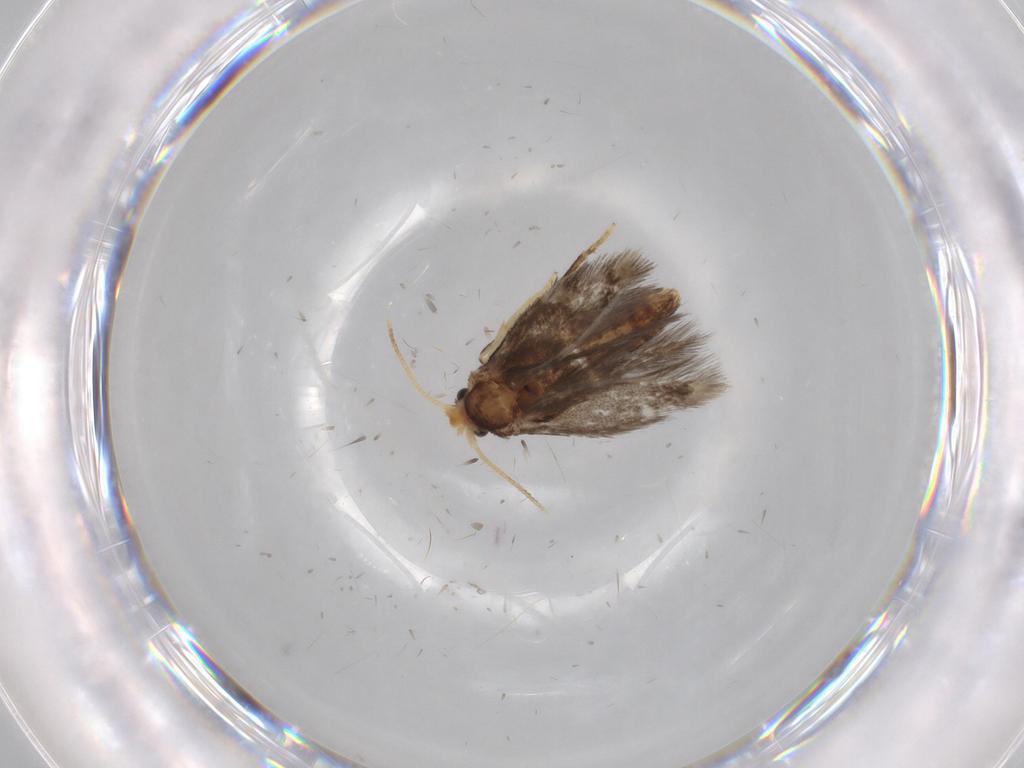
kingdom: Animalia
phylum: Arthropoda
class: Insecta
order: Lepidoptera
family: Nepticulidae
